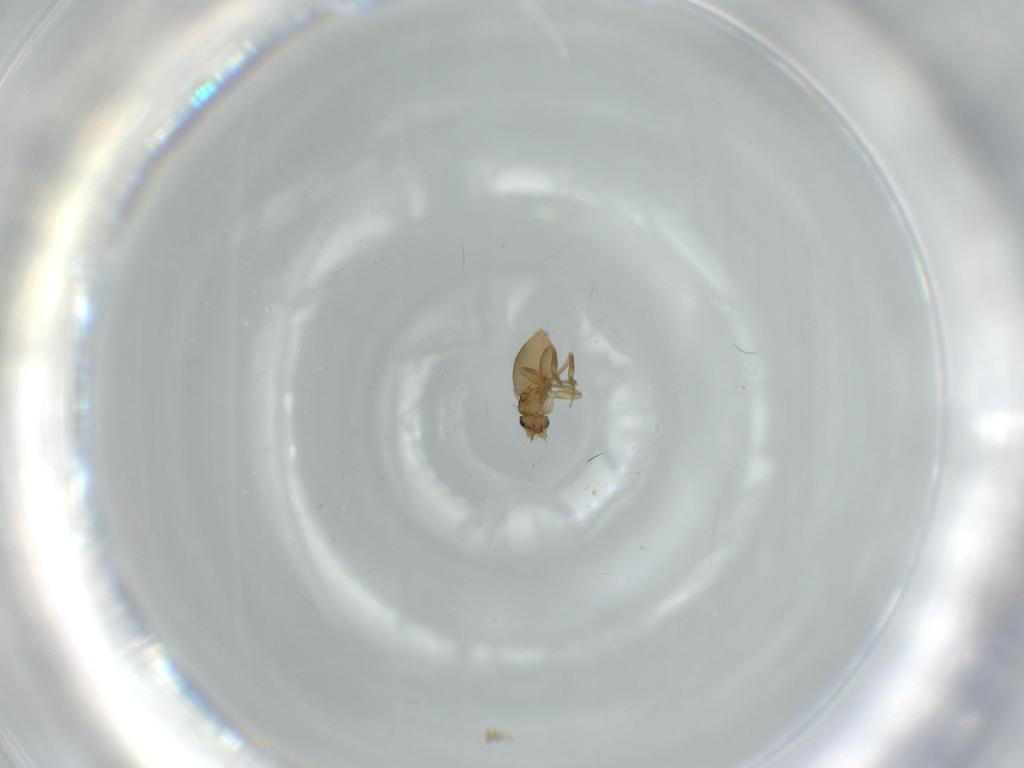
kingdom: Animalia
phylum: Arthropoda
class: Insecta
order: Diptera
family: Phoridae
